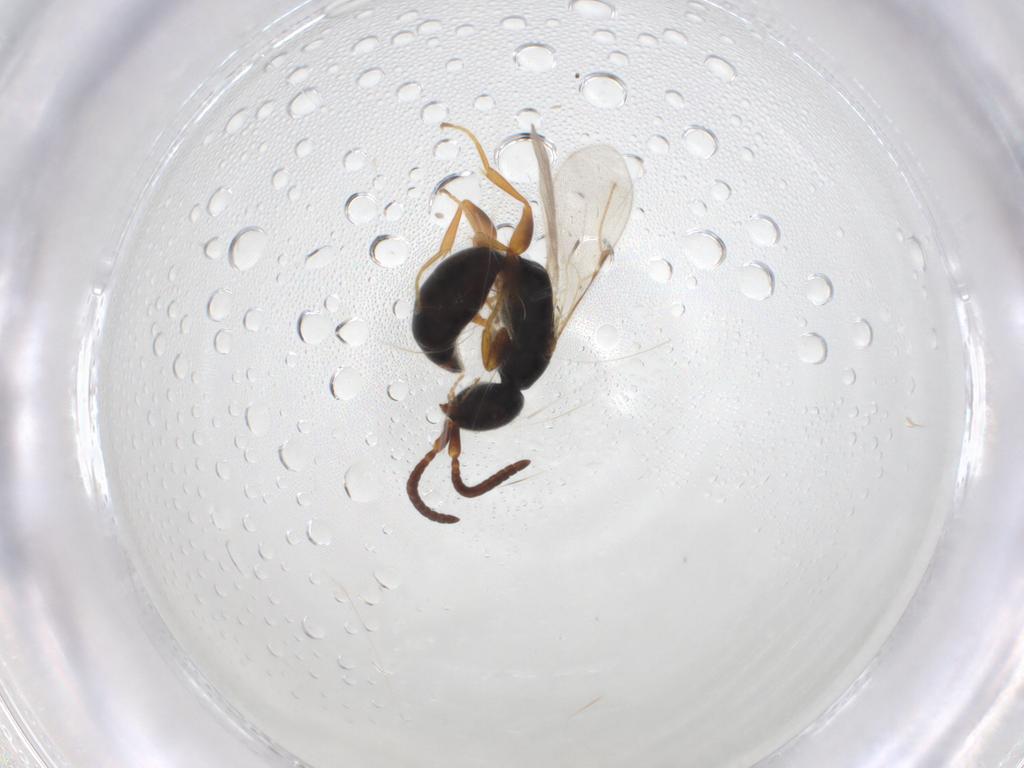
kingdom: Animalia
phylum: Arthropoda
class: Insecta
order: Hymenoptera
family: Bethylidae
